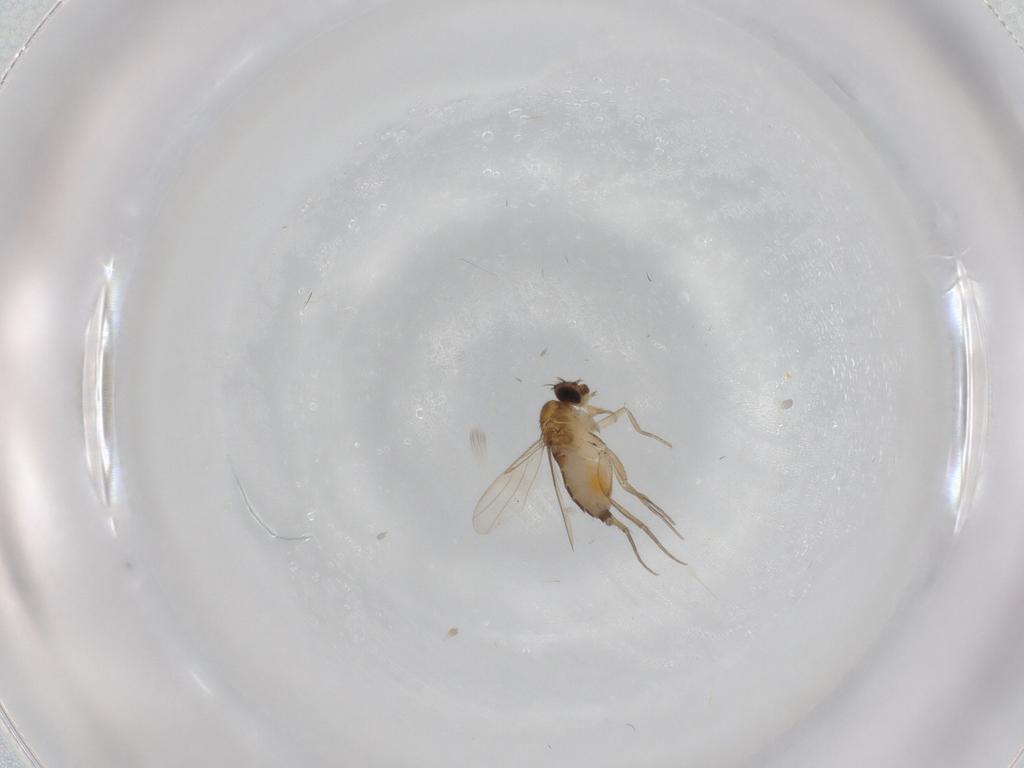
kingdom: Animalia
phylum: Arthropoda
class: Insecta
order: Diptera
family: Phoridae
